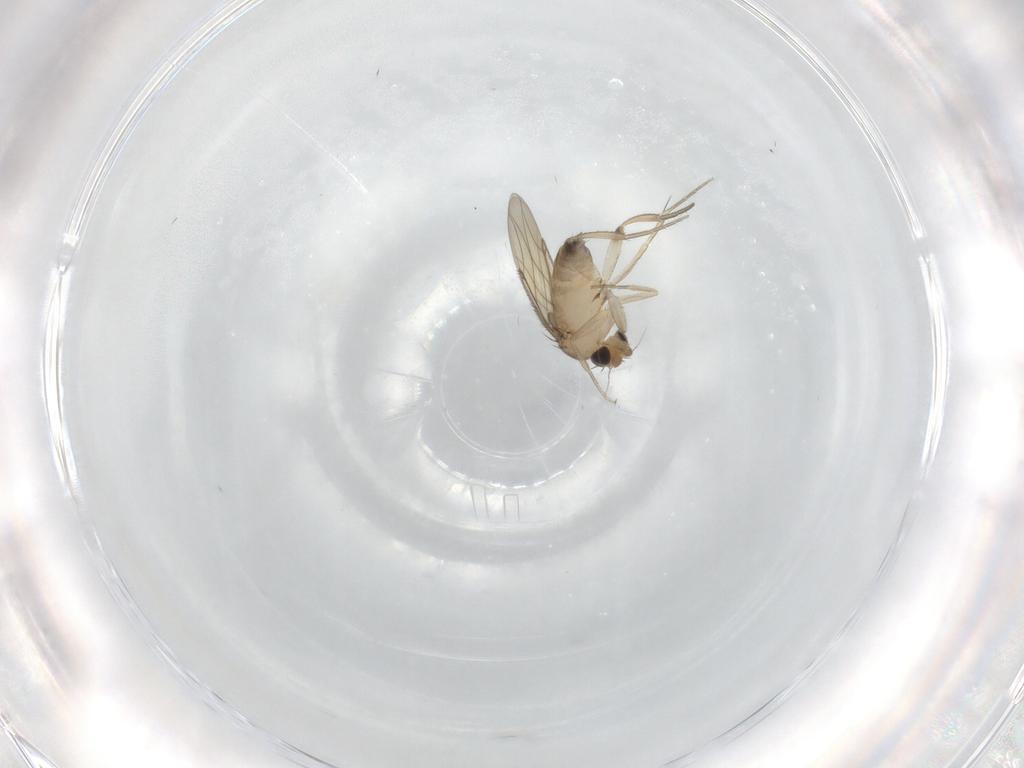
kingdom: Animalia
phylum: Arthropoda
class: Insecta
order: Diptera
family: Phoridae
